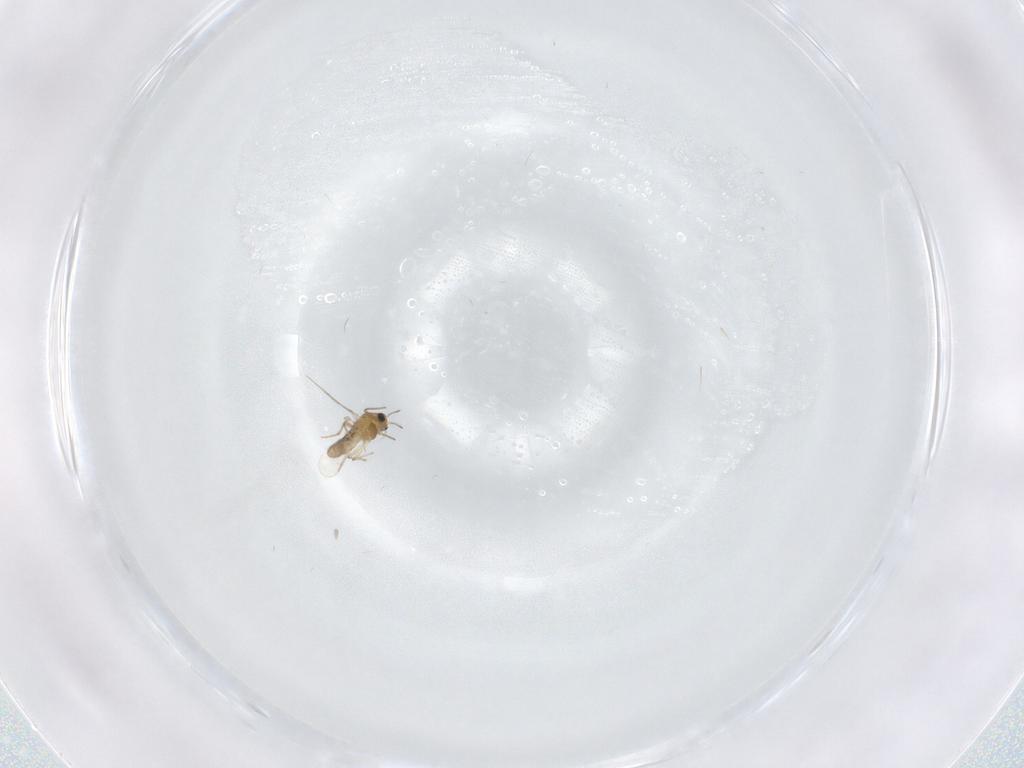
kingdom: Animalia
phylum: Arthropoda
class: Insecta
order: Diptera
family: Chironomidae
